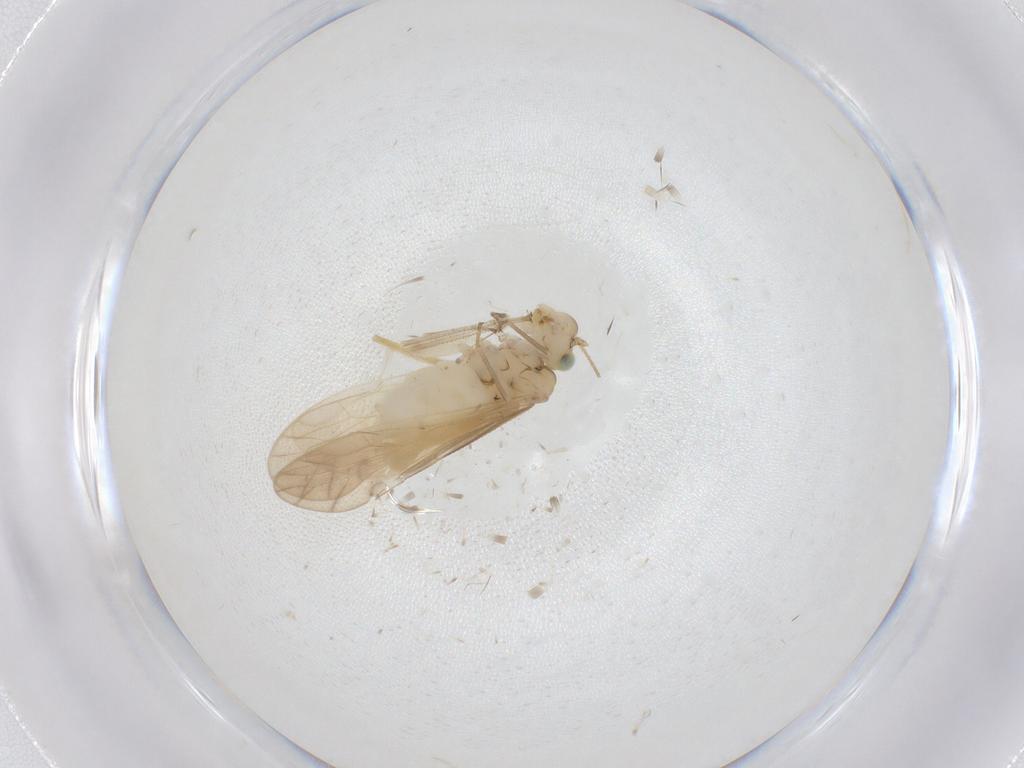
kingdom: Animalia
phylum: Arthropoda
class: Insecta
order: Psocodea
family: Caeciliusidae
